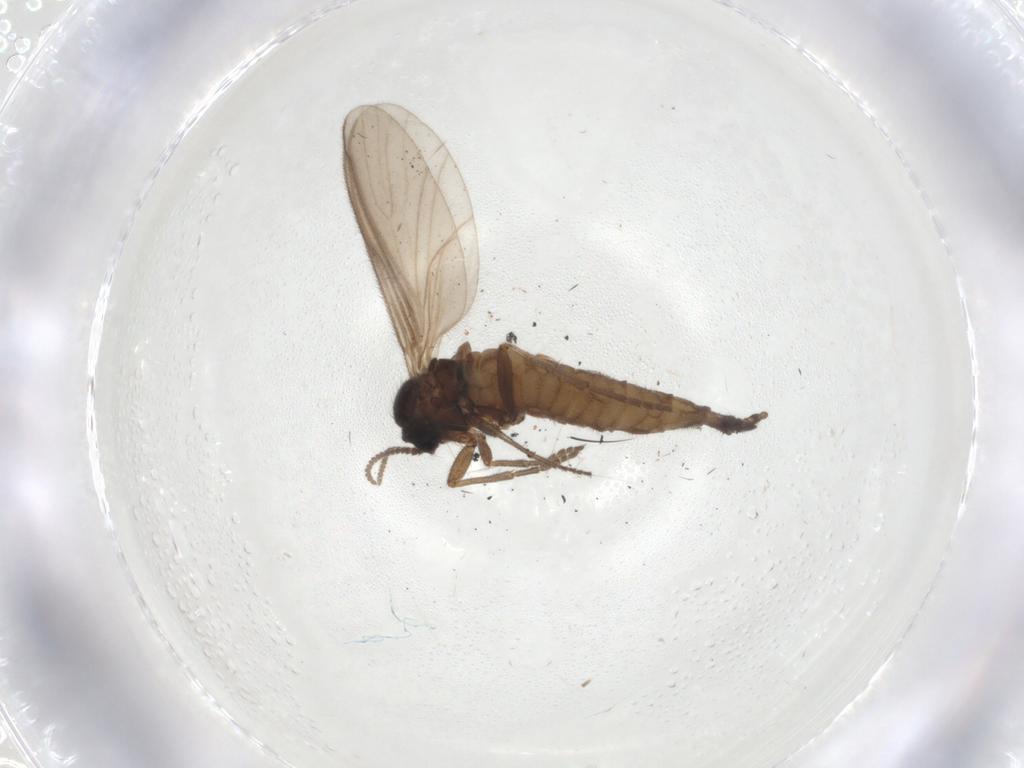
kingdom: Animalia
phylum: Arthropoda
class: Insecta
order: Diptera
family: Sciaridae
